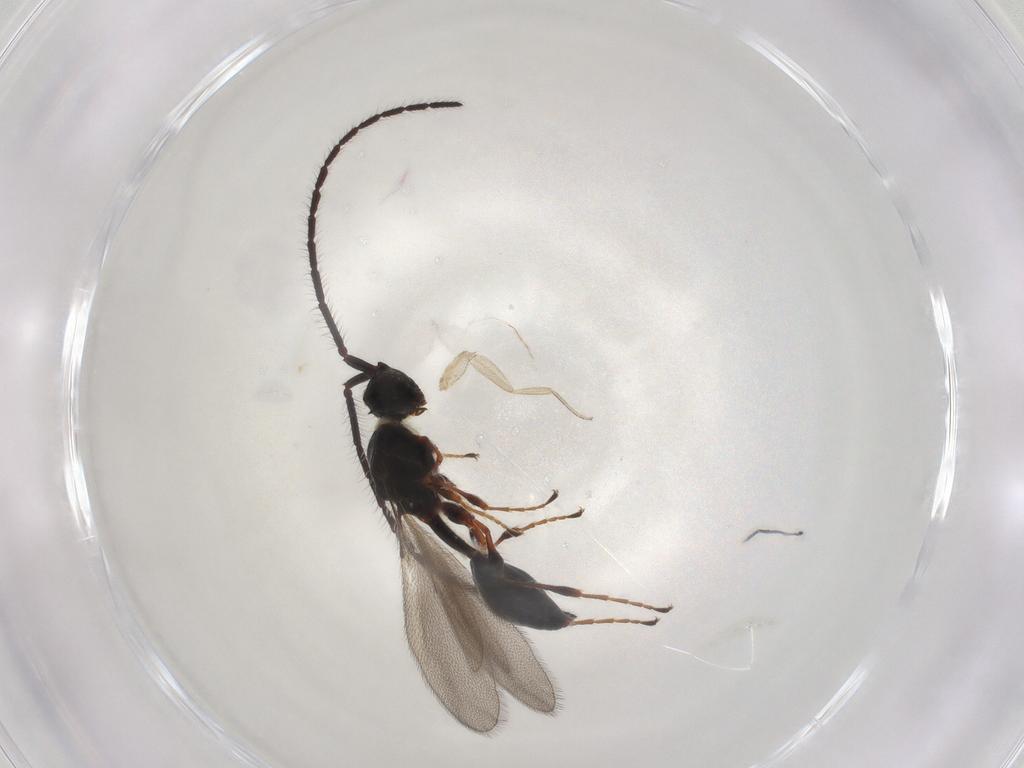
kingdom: Animalia
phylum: Arthropoda
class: Insecta
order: Hymenoptera
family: Diapriidae
